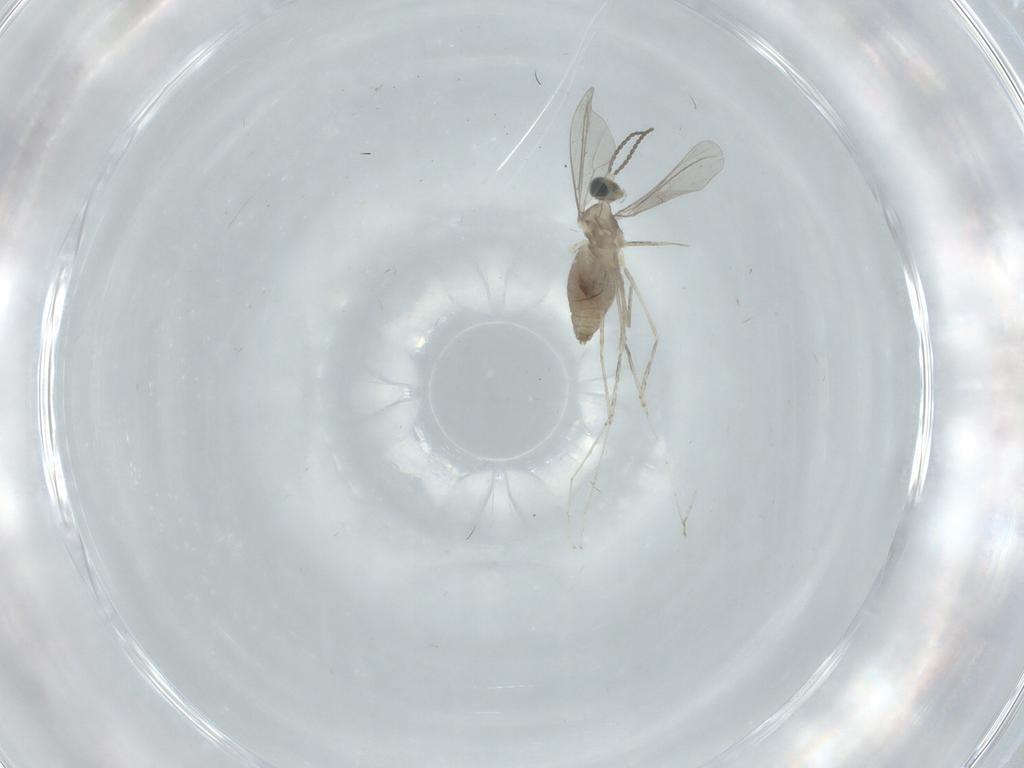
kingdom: Animalia
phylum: Arthropoda
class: Insecta
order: Diptera
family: Cecidomyiidae
